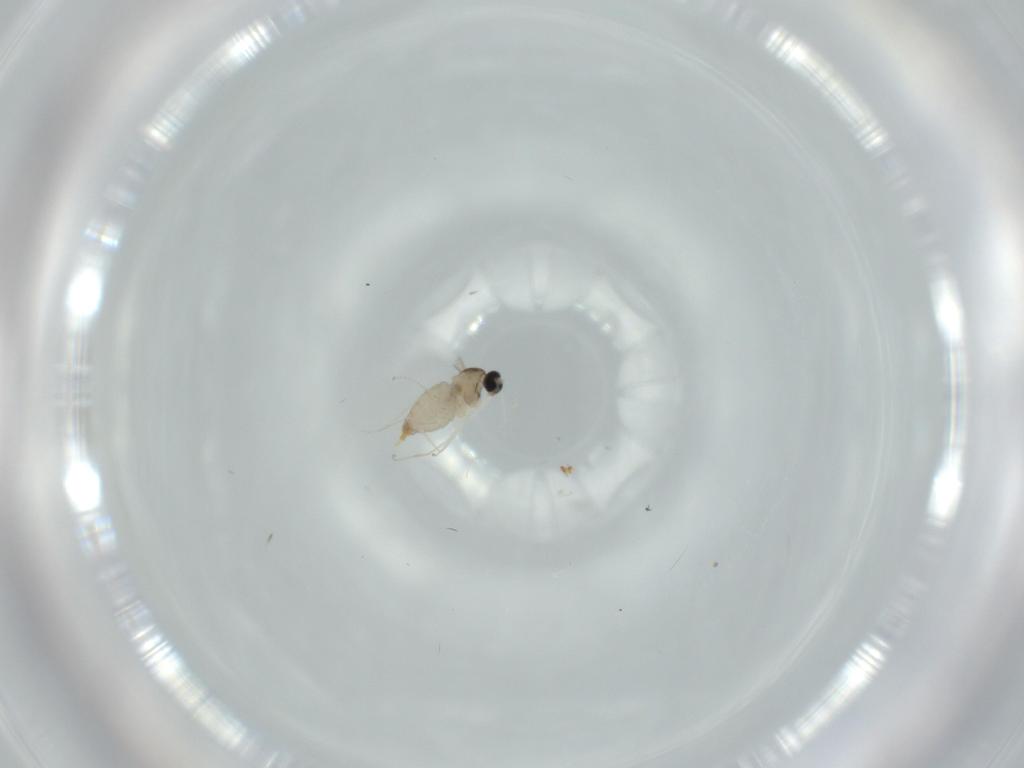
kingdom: Animalia
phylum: Arthropoda
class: Insecta
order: Diptera
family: Cecidomyiidae
